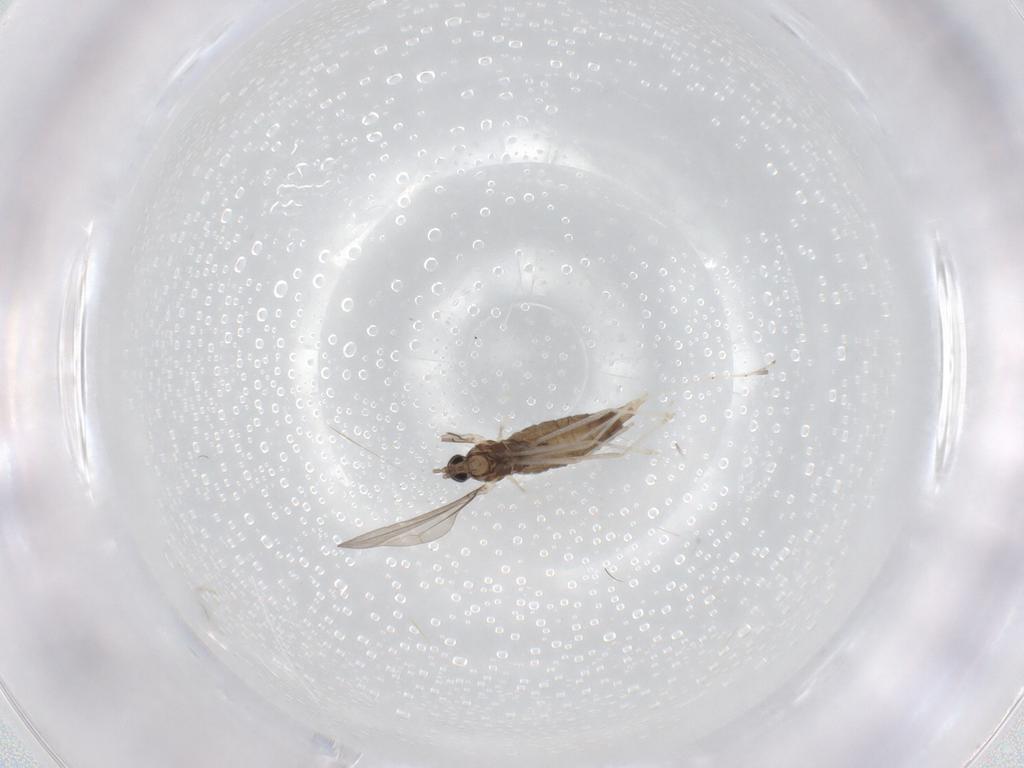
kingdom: Animalia
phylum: Arthropoda
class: Insecta
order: Diptera
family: Cecidomyiidae
